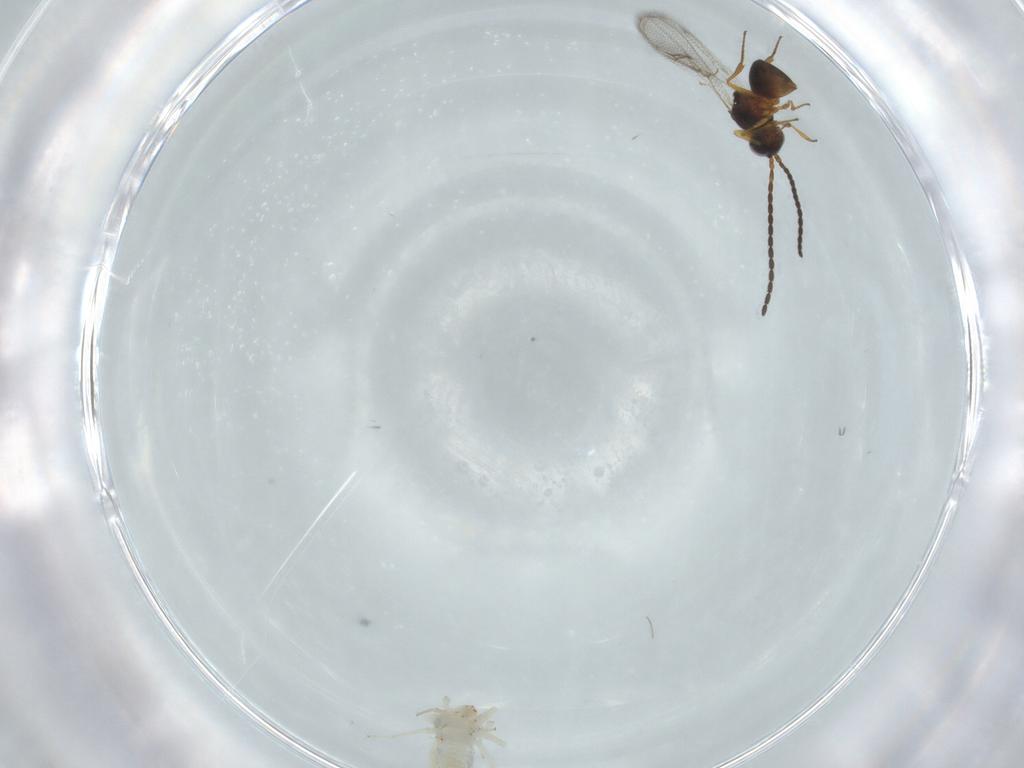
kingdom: Animalia
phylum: Arthropoda
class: Insecta
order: Psocodea
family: Lepidopsocidae
